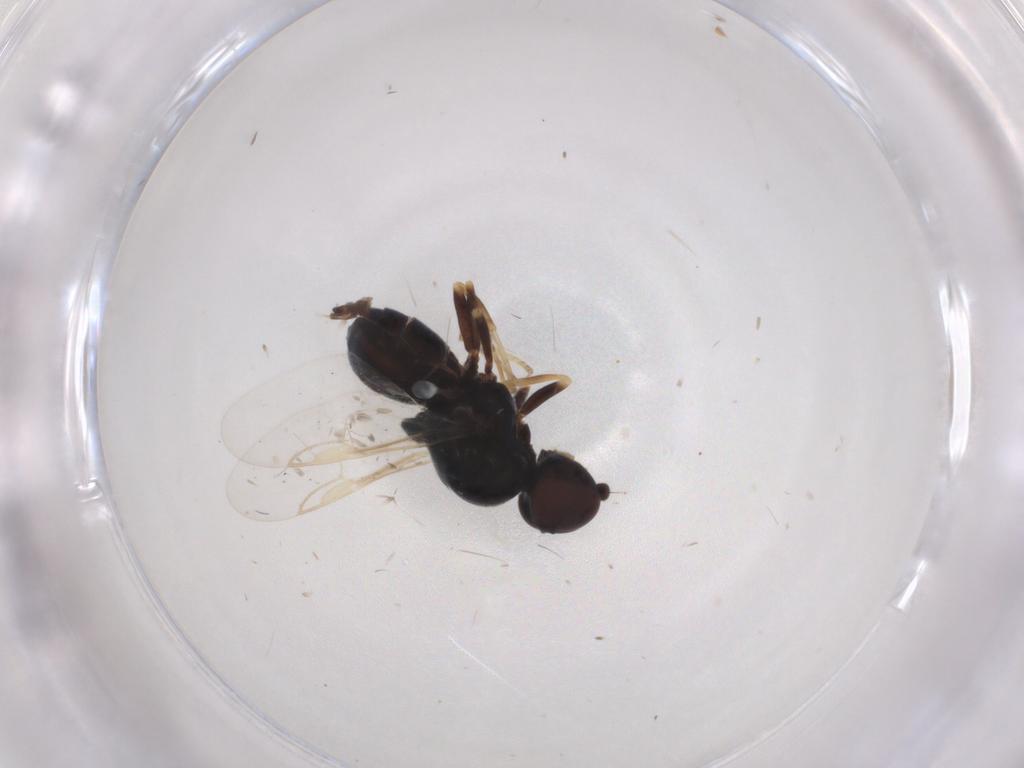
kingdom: Animalia
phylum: Arthropoda
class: Insecta
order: Diptera
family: Stratiomyidae
